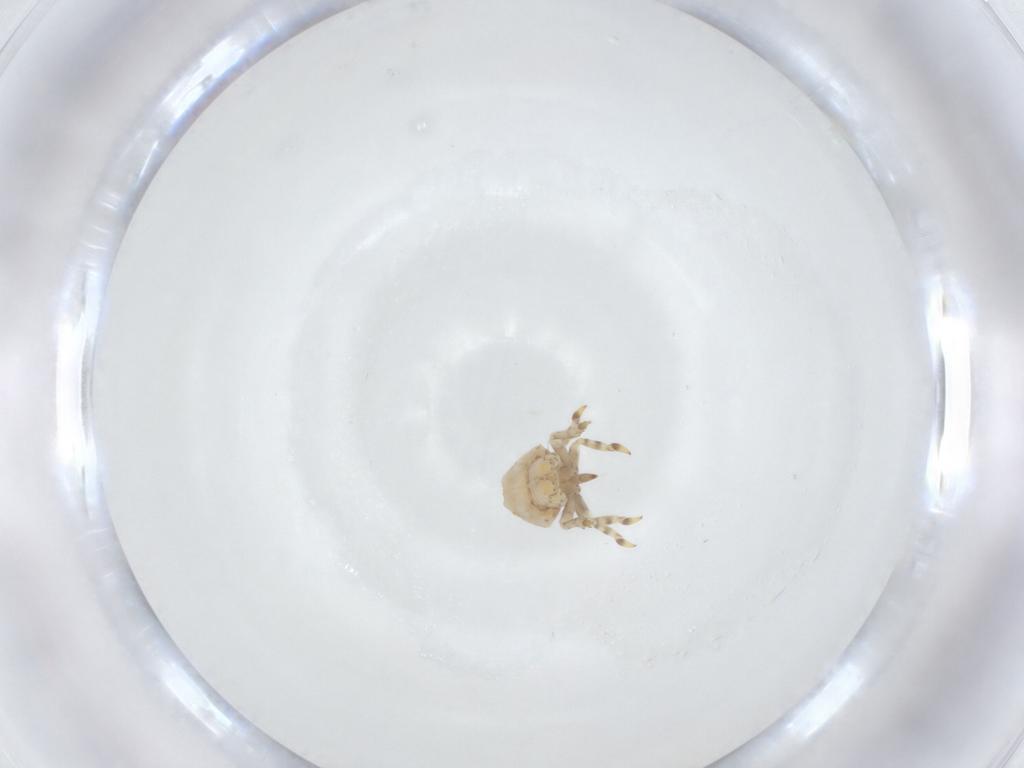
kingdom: Animalia
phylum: Arthropoda
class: Insecta
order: Hemiptera
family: Acanaloniidae
